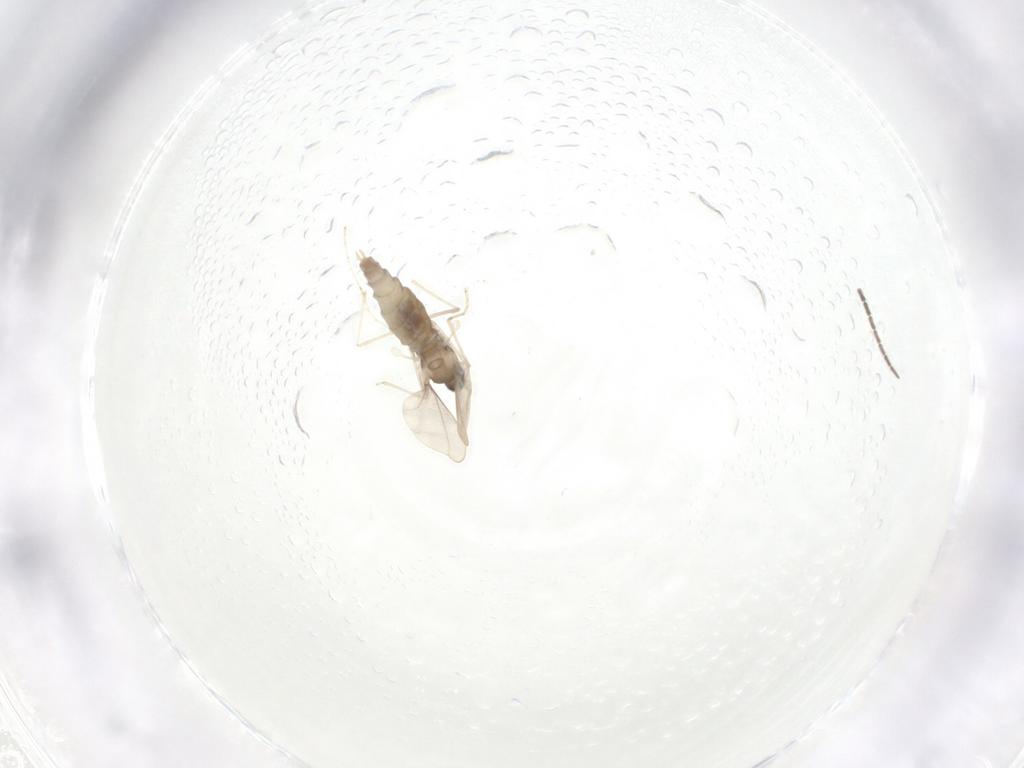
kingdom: Animalia
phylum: Arthropoda
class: Insecta
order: Diptera
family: Cecidomyiidae
